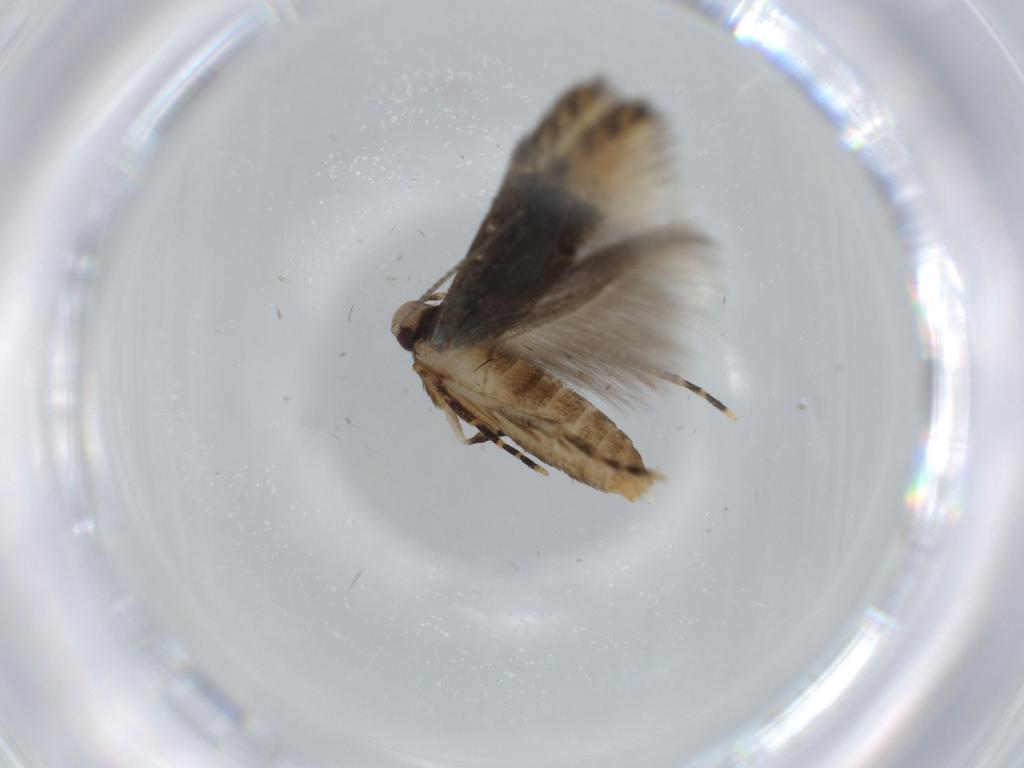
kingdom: Animalia
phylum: Arthropoda
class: Insecta
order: Lepidoptera
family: Stathmopodidae
